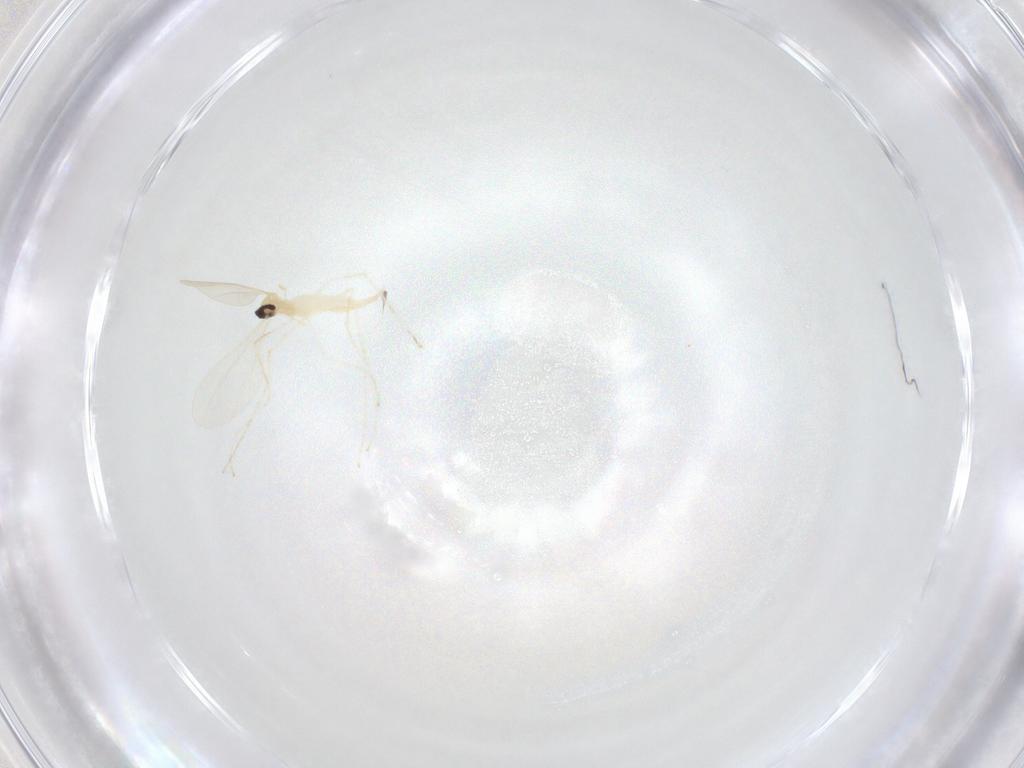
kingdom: Animalia
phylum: Arthropoda
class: Insecta
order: Diptera
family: Cecidomyiidae
